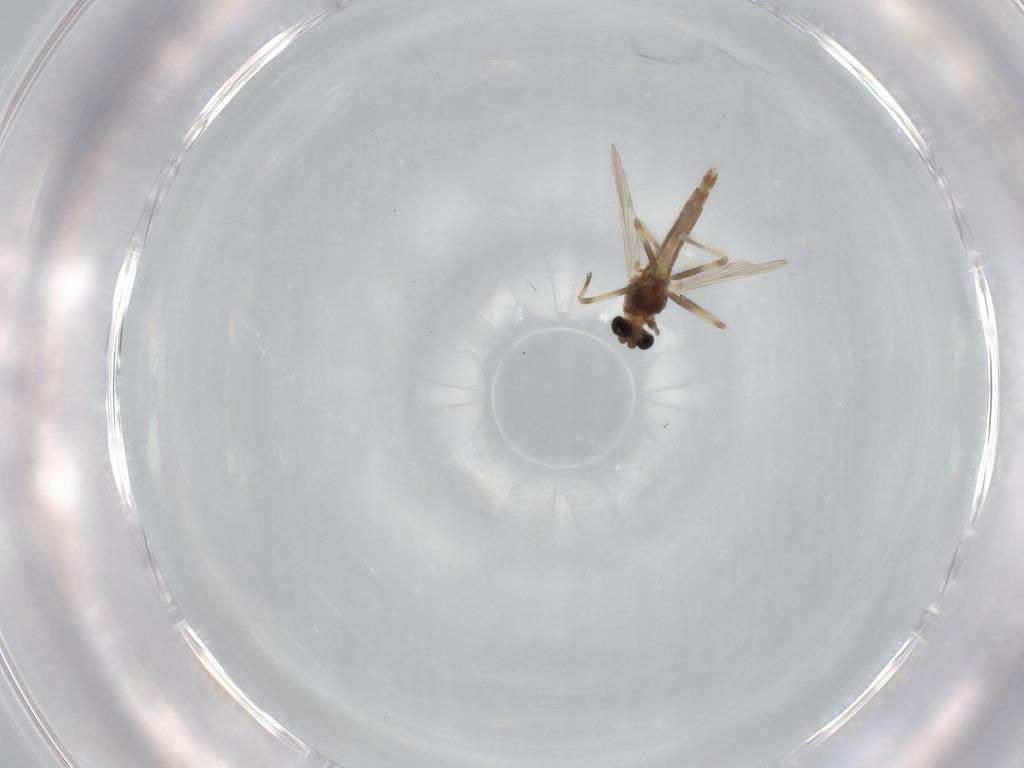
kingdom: Animalia
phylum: Arthropoda
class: Insecta
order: Diptera
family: Chironomidae
